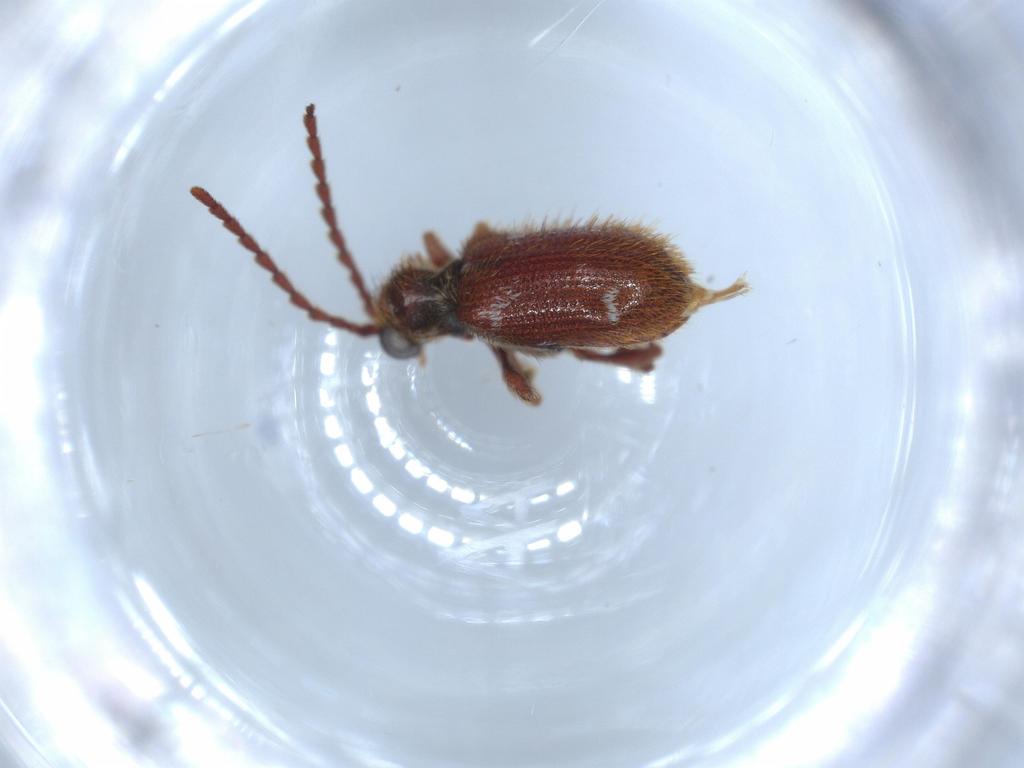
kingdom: Animalia
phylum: Arthropoda
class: Insecta
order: Coleoptera
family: Ptinidae
